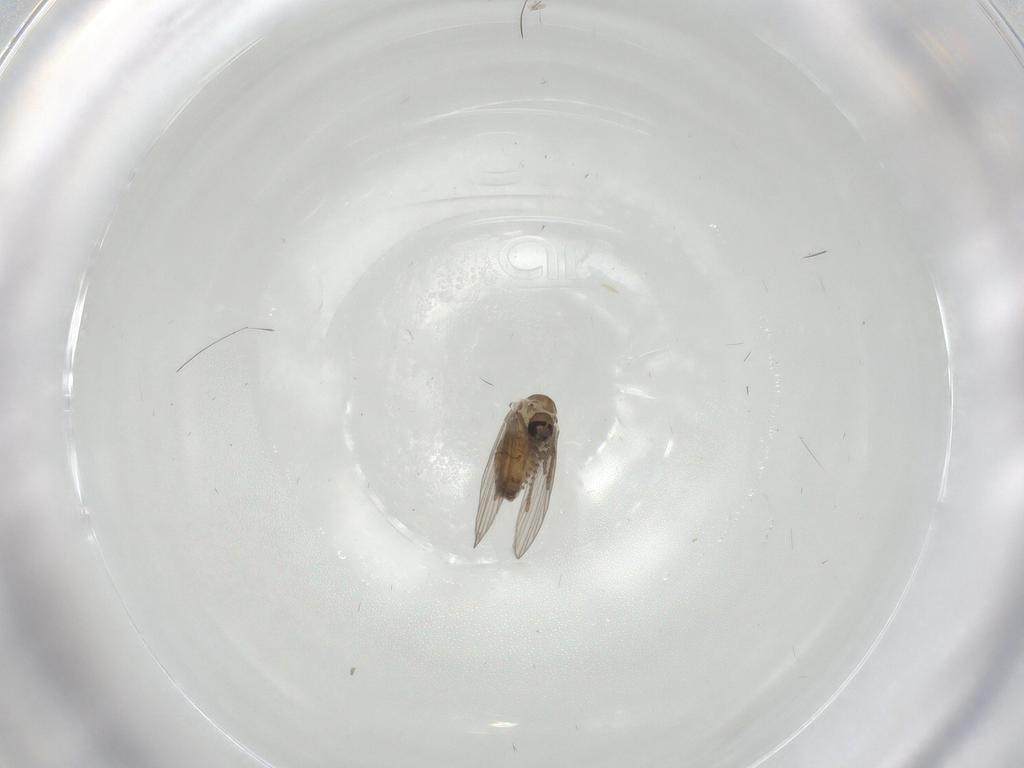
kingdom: Animalia
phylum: Arthropoda
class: Insecta
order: Diptera
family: Psychodidae
